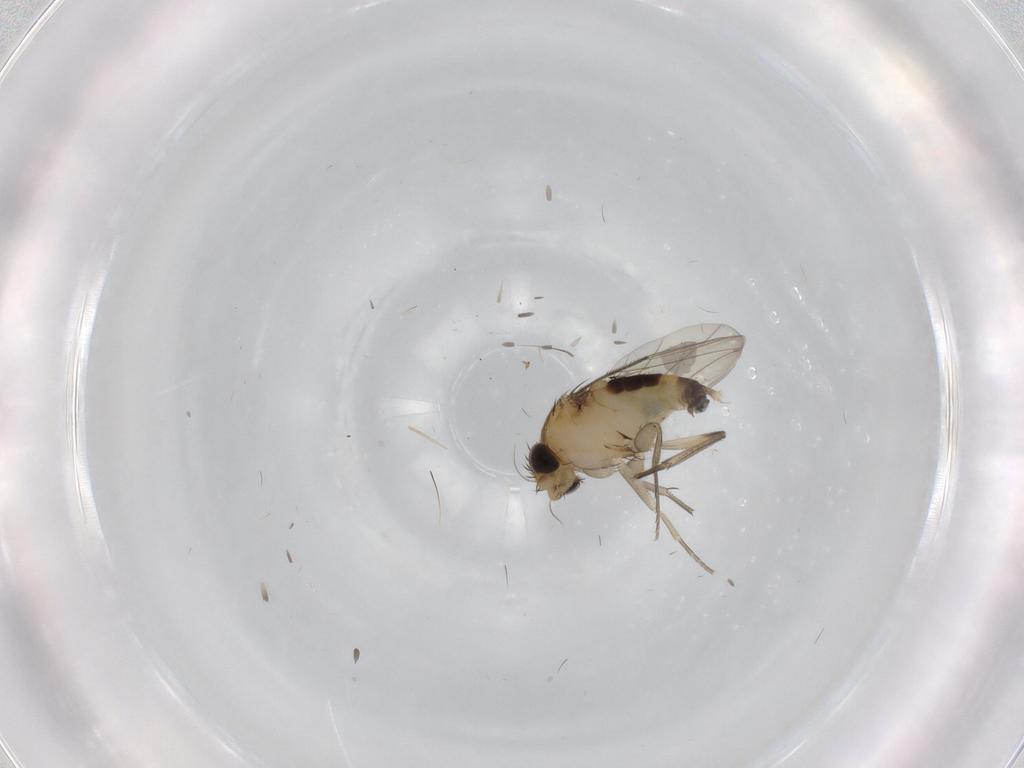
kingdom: Animalia
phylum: Arthropoda
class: Insecta
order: Diptera
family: Phoridae
